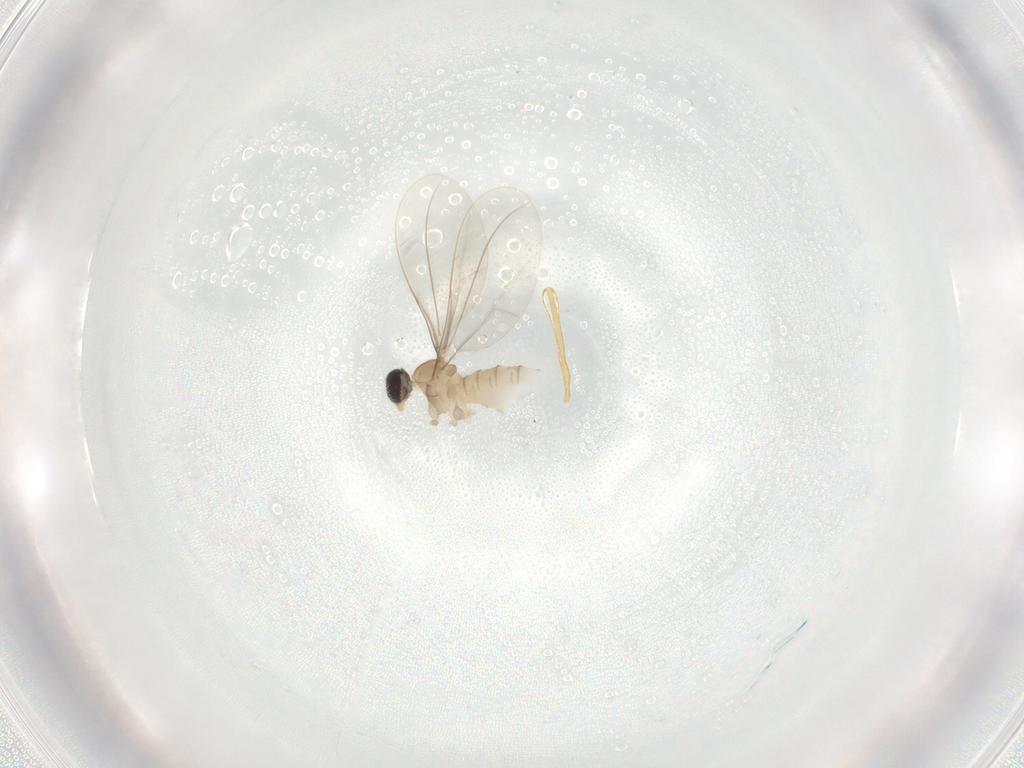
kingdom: Animalia
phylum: Arthropoda
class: Insecta
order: Diptera
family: Cecidomyiidae
